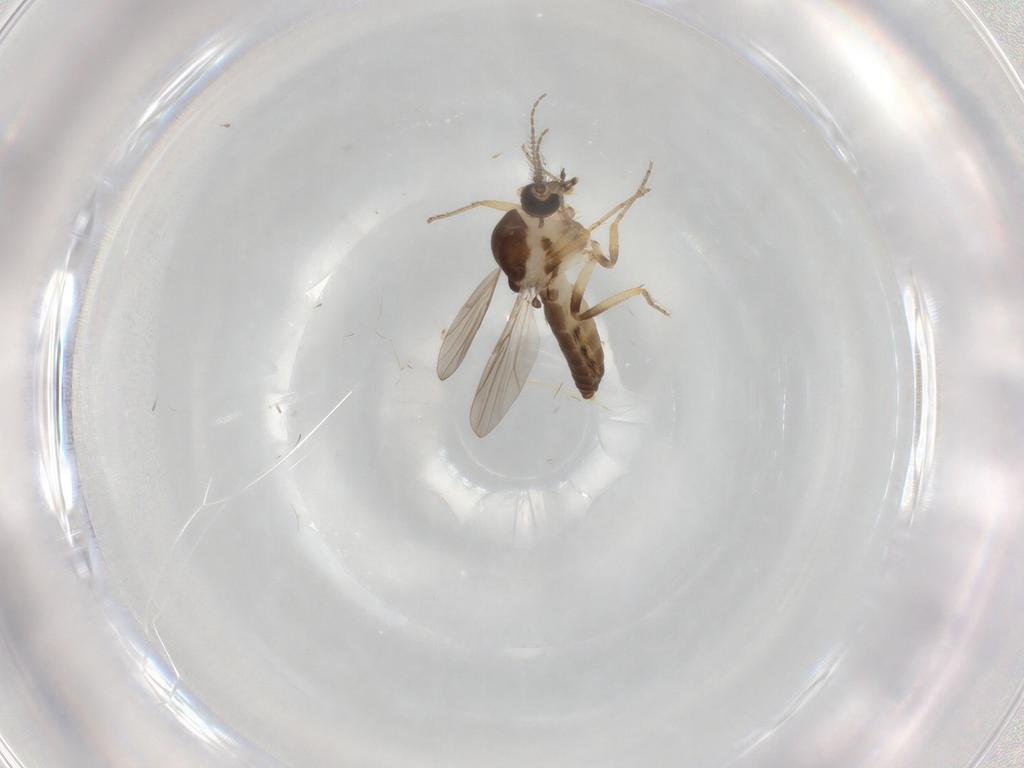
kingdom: Animalia
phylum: Arthropoda
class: Insecta
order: Diptera
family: Ceratopogonidae
